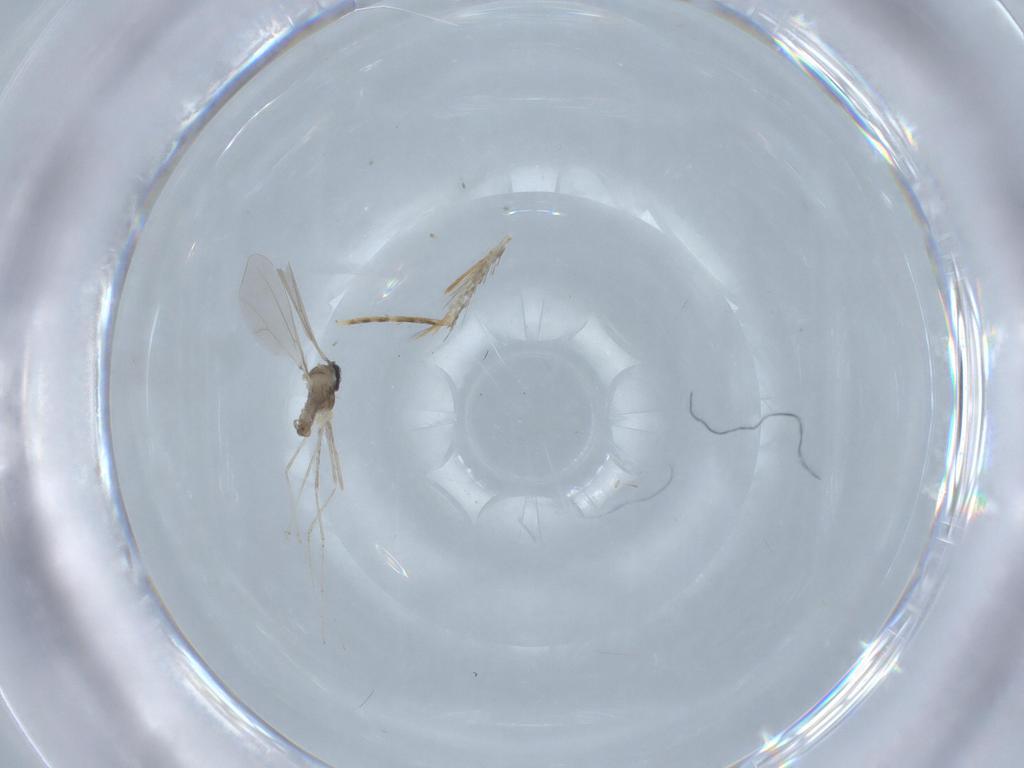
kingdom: Animalia
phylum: Arthropoda
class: Insecta
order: Diptera
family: Cecidomyiidae
